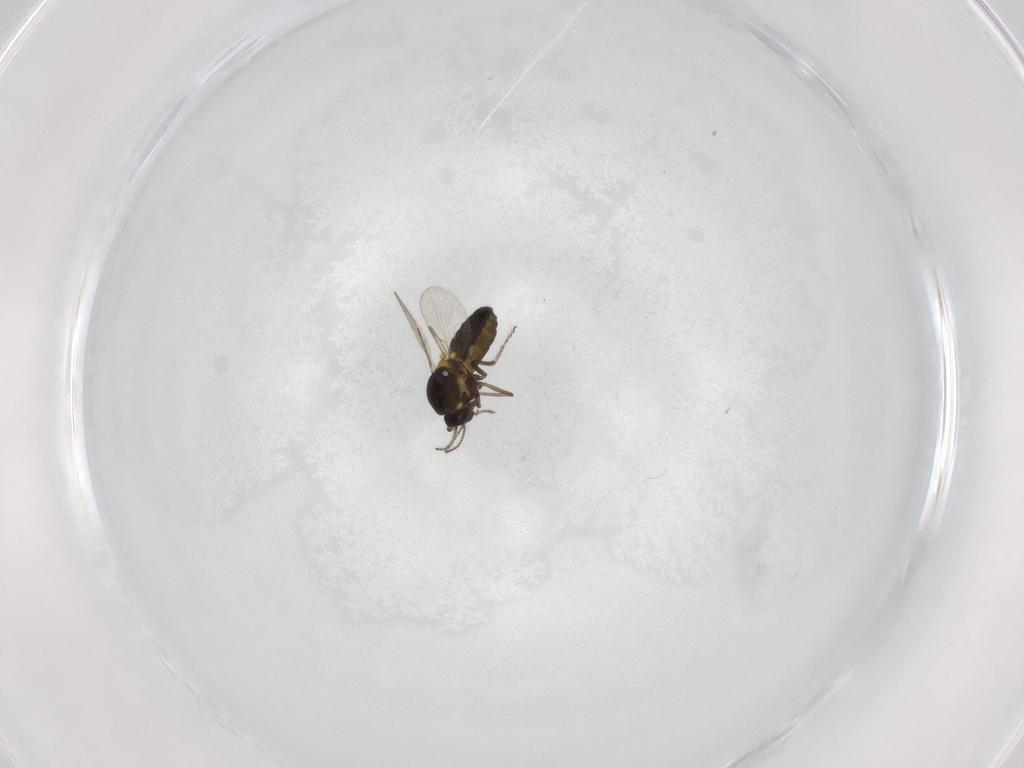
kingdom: Animalia
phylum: Arthropoda
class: Insecta
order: Diptera
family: Ceratopogonidae
